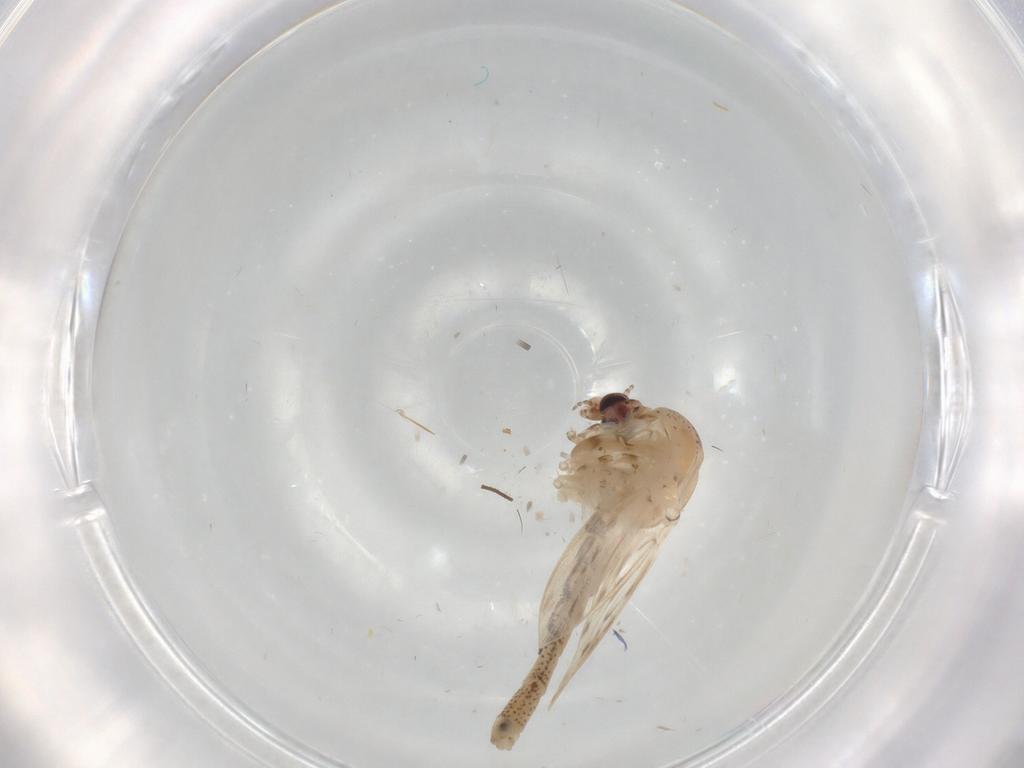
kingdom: Animalia
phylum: Arthropoda
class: Insecta
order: Diptera
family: Chaoboridae
